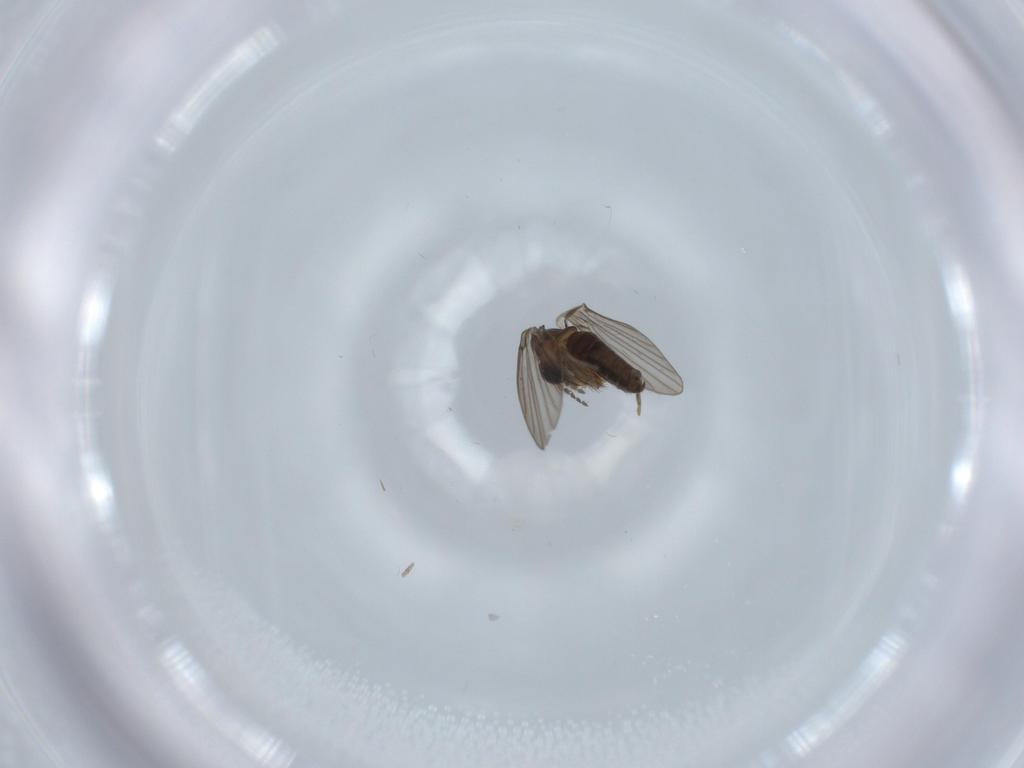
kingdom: Animalia
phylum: Arthropoda
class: Insecta
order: Diptera
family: Psychodidae
